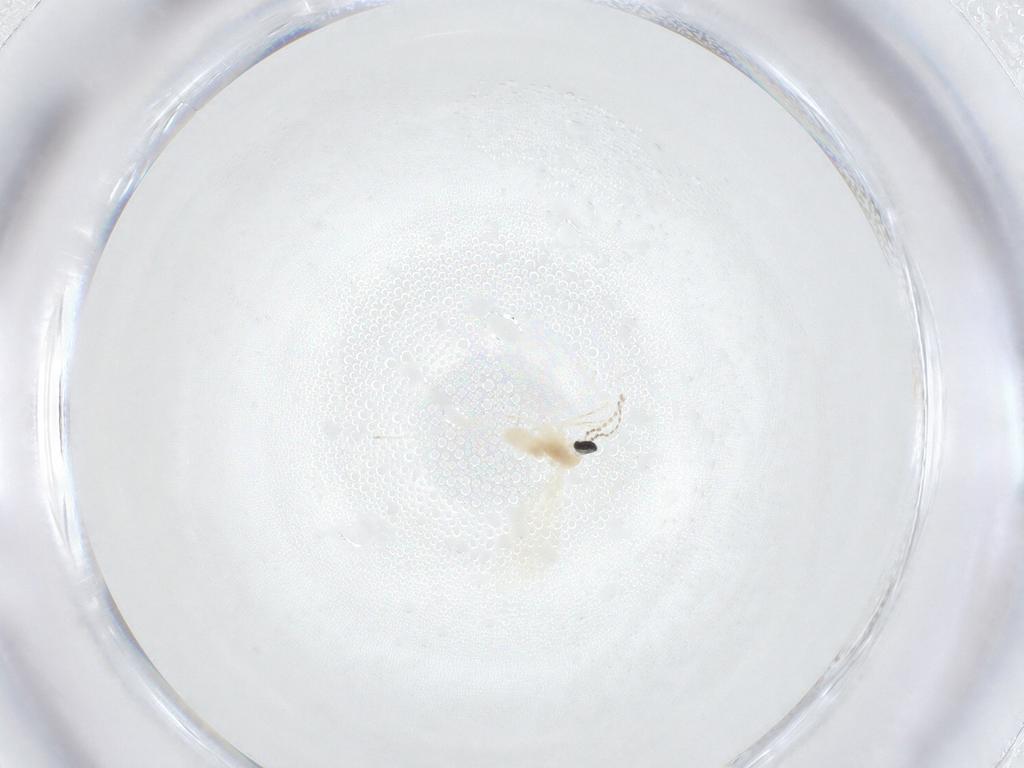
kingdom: Animalia
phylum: Arthropoda
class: Insecta
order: Diptera
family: Cecidomyiidae
